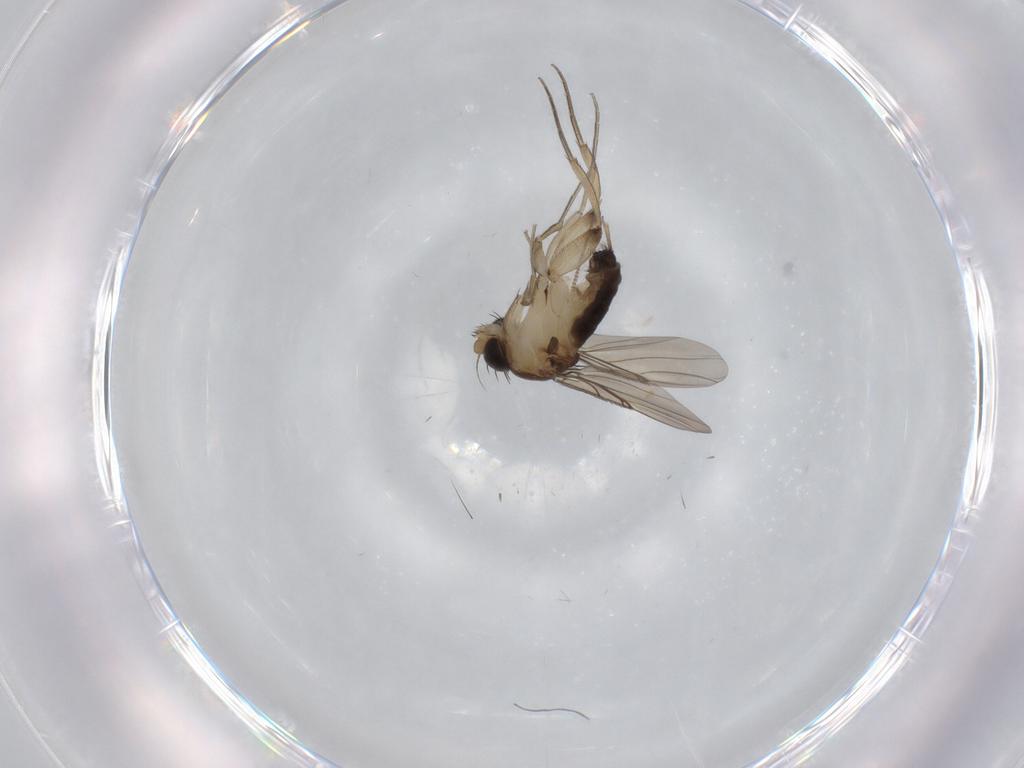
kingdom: Animalia
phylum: Arthropoda
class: Insecta
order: Diptera
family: Phoridae
